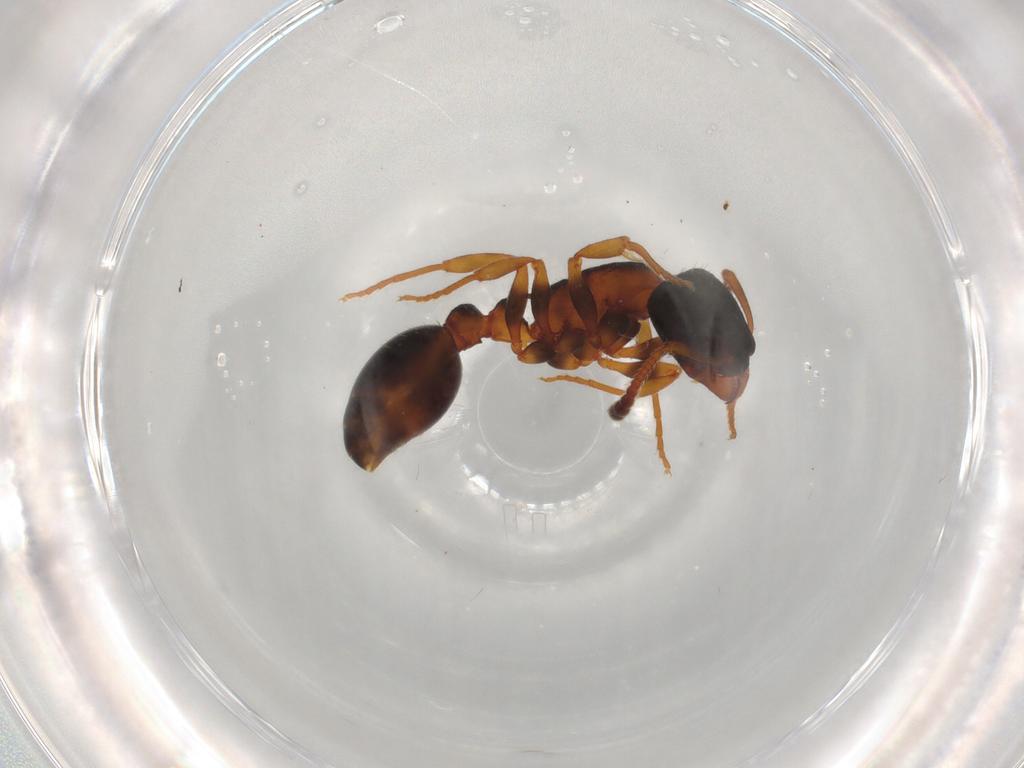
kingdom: Animalia
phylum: Arthropoda
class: Insecta
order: Hymenoptera
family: Formicidae
